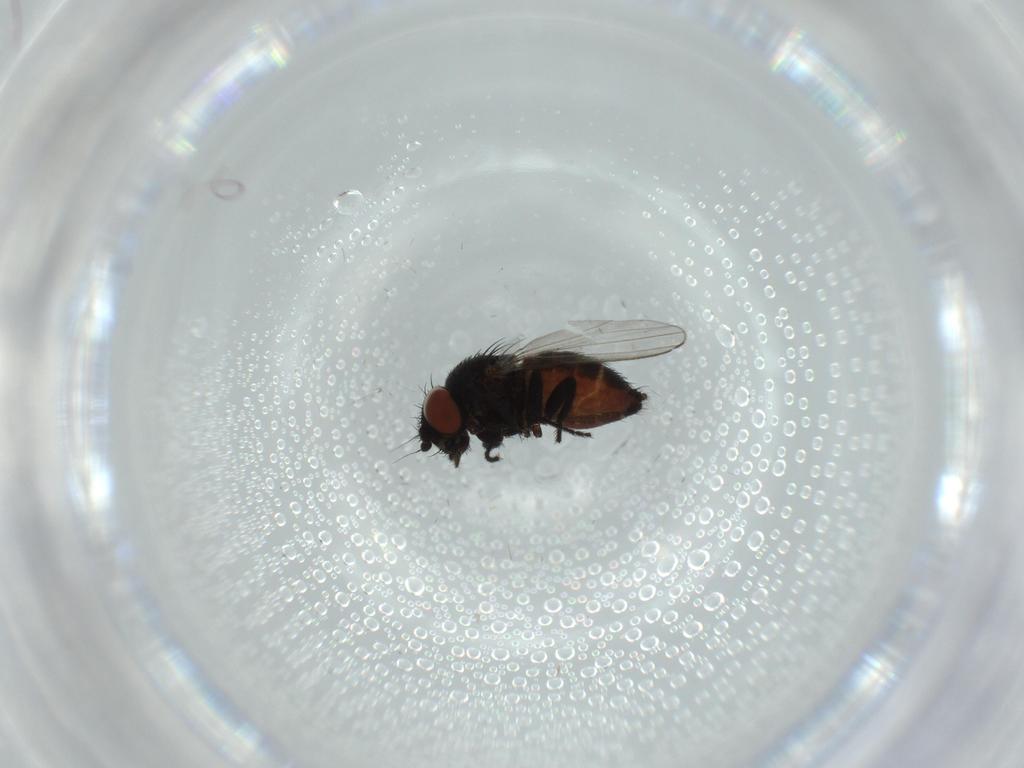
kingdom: Animalia
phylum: Arthropoda
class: Insecta
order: Diptera
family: Milichiidae
